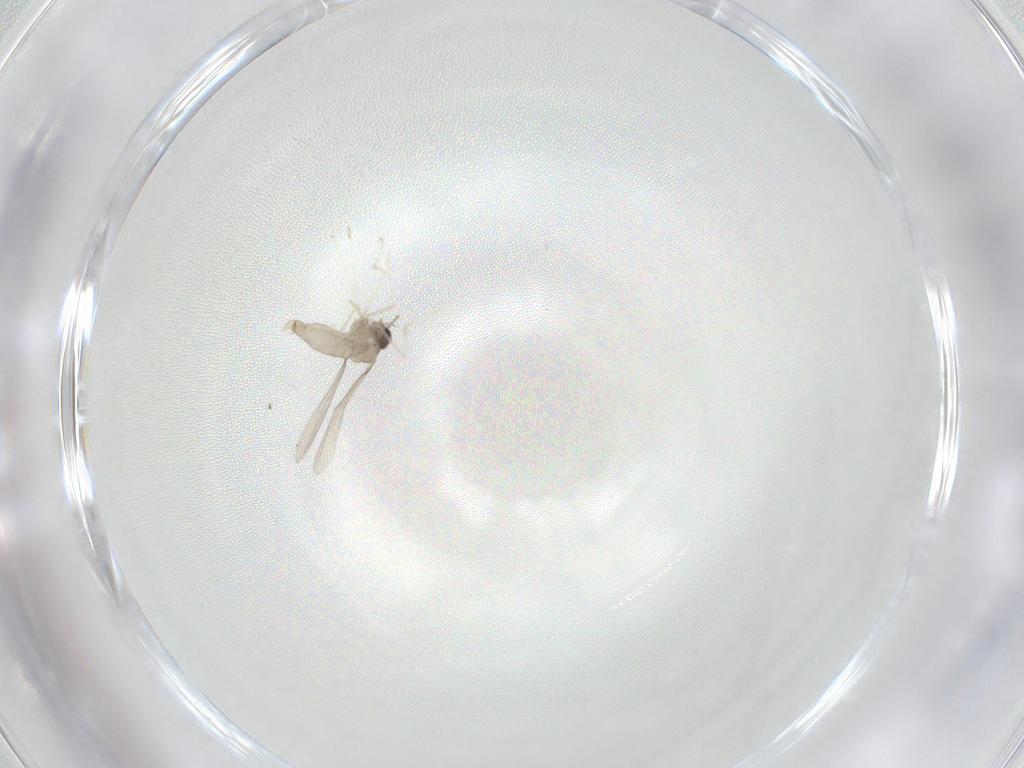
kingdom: Animalia
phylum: Arthropoda
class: Insecta
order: Diptera
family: Cecidomyiidae
